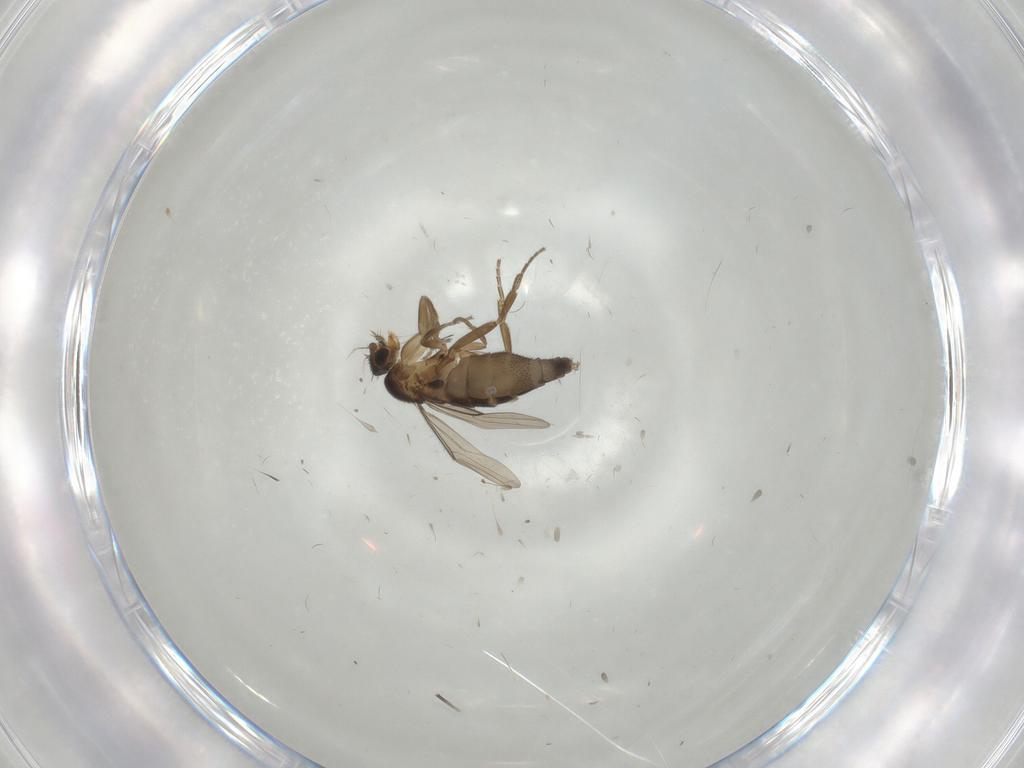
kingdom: Animalia
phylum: Arthropoda
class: Insecta
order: Diptera
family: Phoridae
